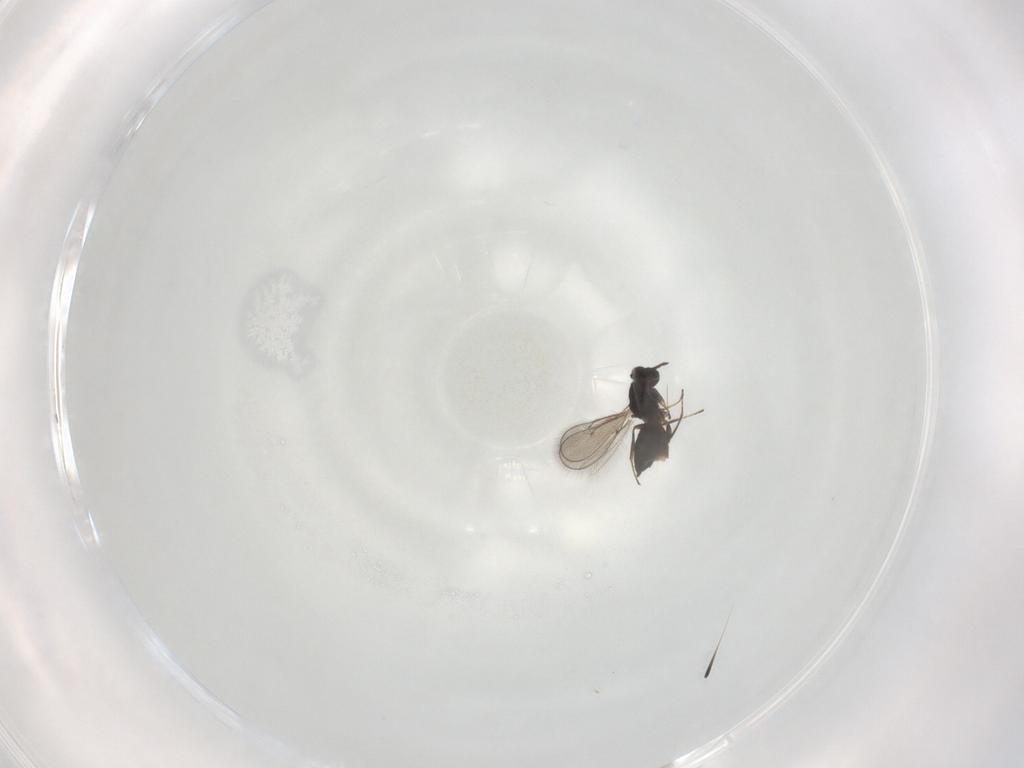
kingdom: Animalia
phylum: Arthropoda
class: Insecta
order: Hymenoptera
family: Eulophidae
